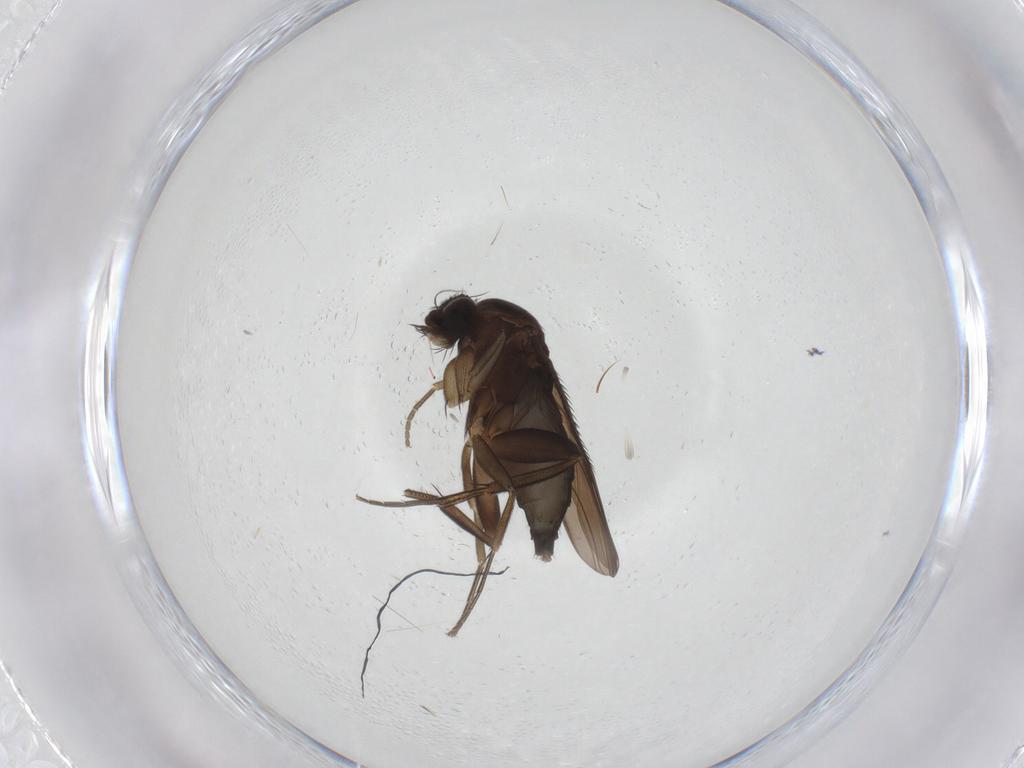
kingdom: Animalia
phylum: Arthropoda
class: Insecta
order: Diptera
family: Phoridae
